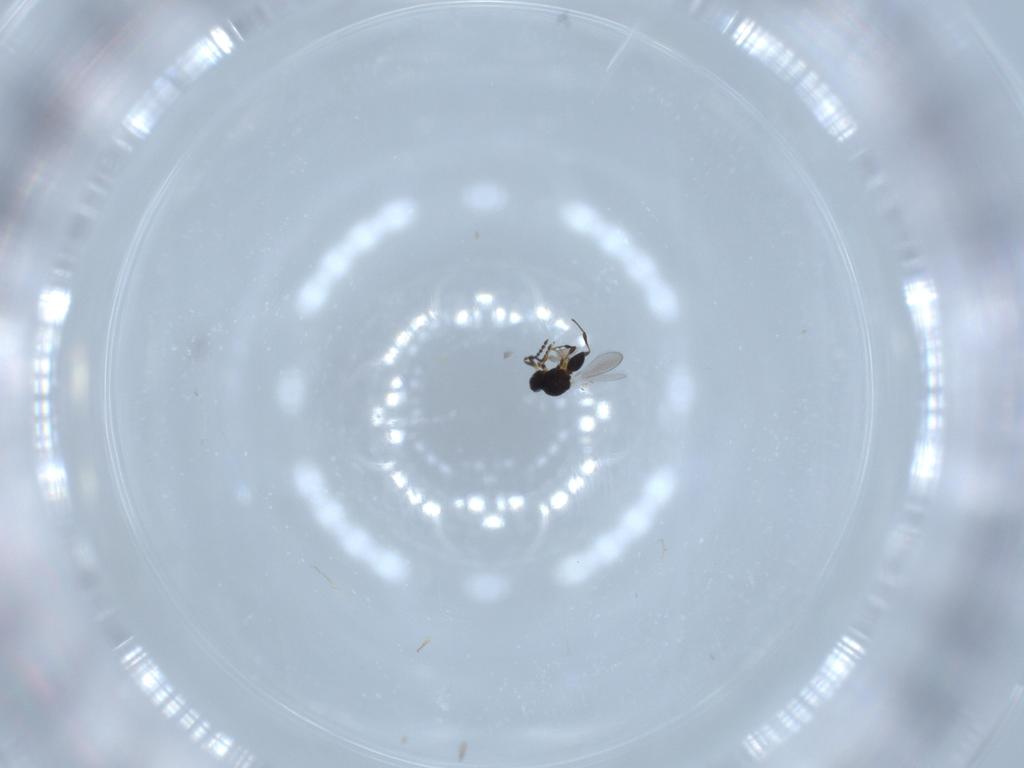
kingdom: Animalia
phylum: Arthropoda
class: Insecta
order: Hymenoptera
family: Platygastridae
